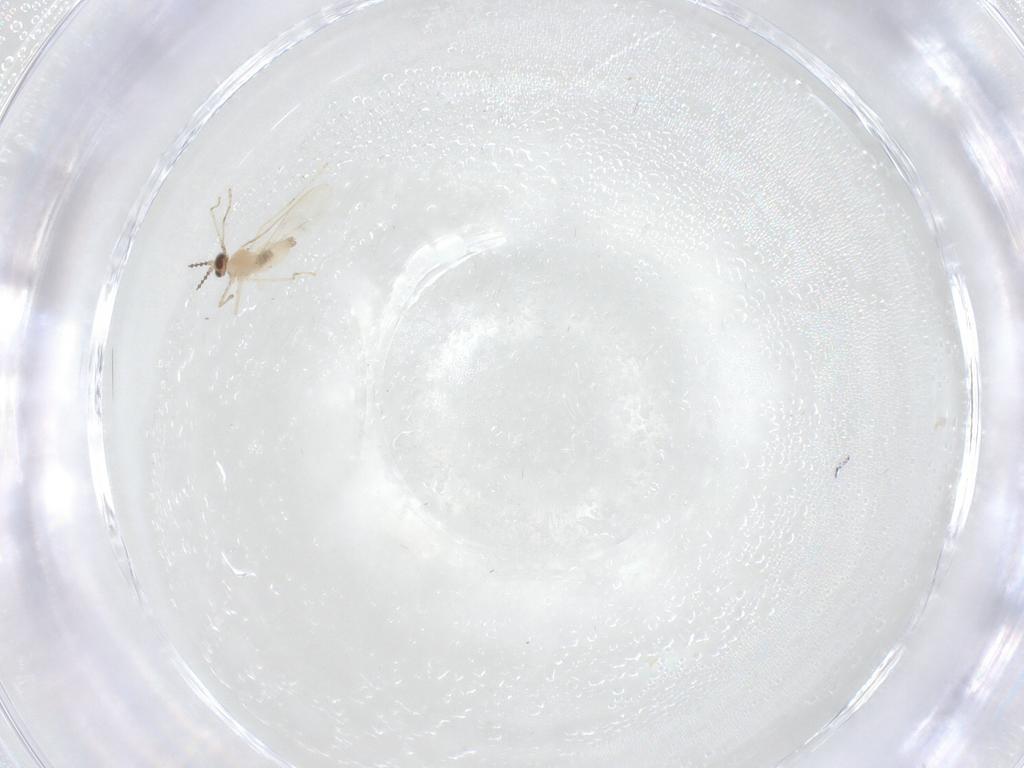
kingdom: Animalia
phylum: Arthropoda
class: Insecta
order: Diptera
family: Cecidomyiidae
